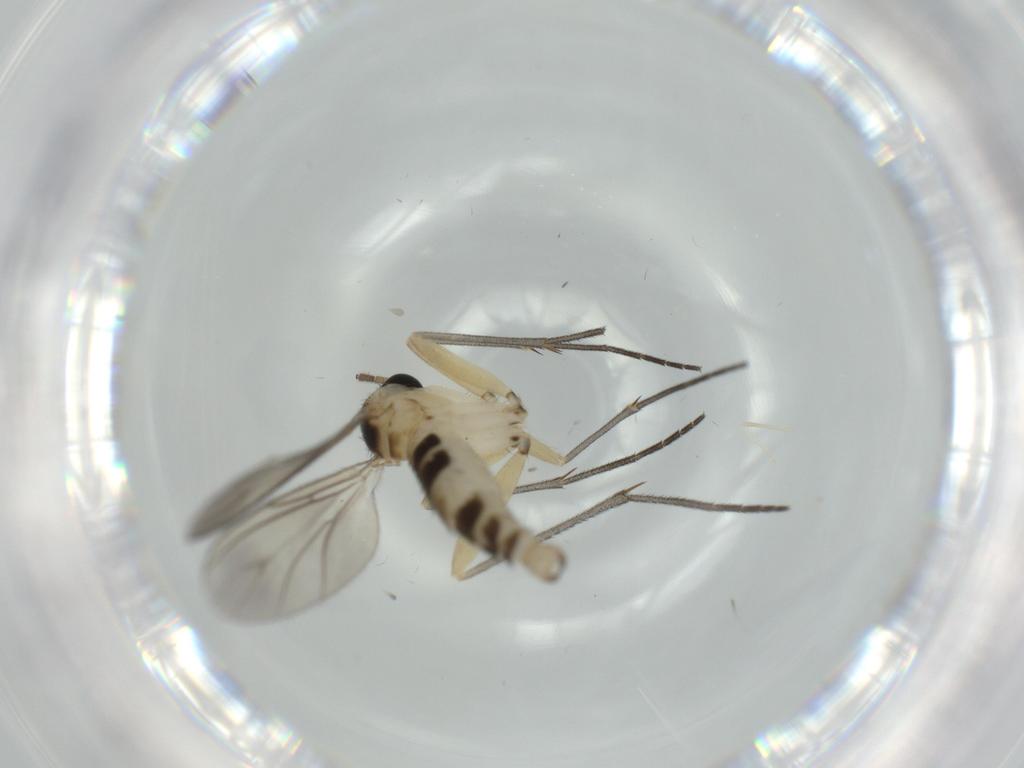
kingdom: Animalia
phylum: Arthropoda
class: Insecta
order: Diptera
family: Sciaridae
